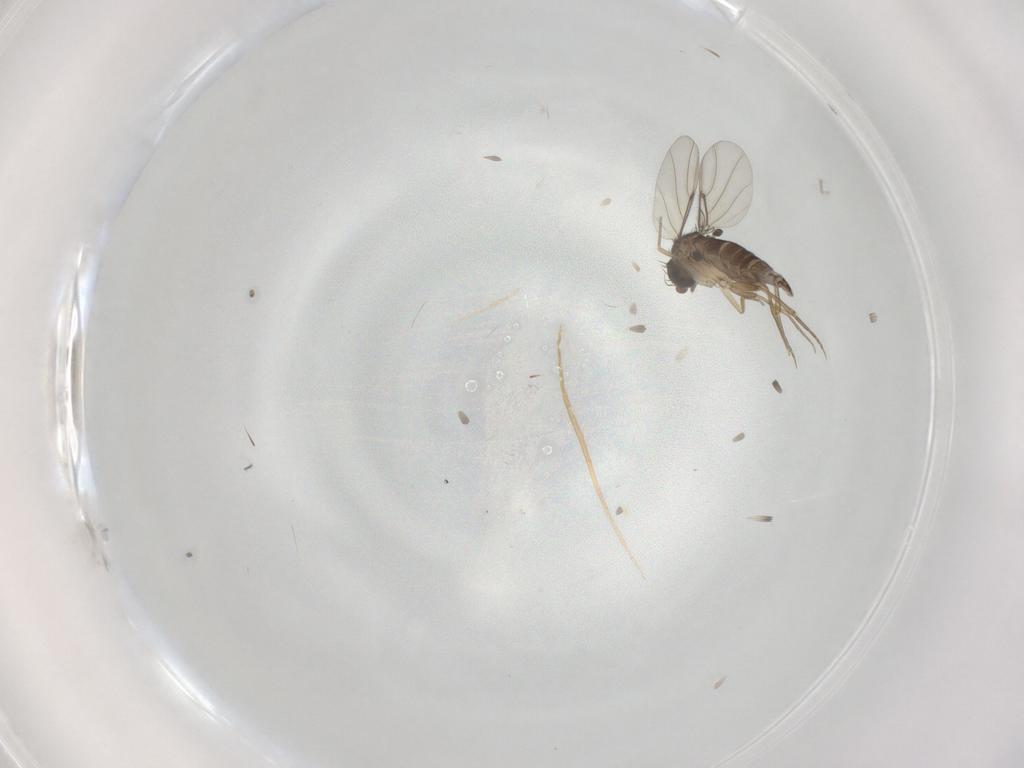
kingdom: Animalia
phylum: Arthropoda
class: Insecta
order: Diptera
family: Phoridae
